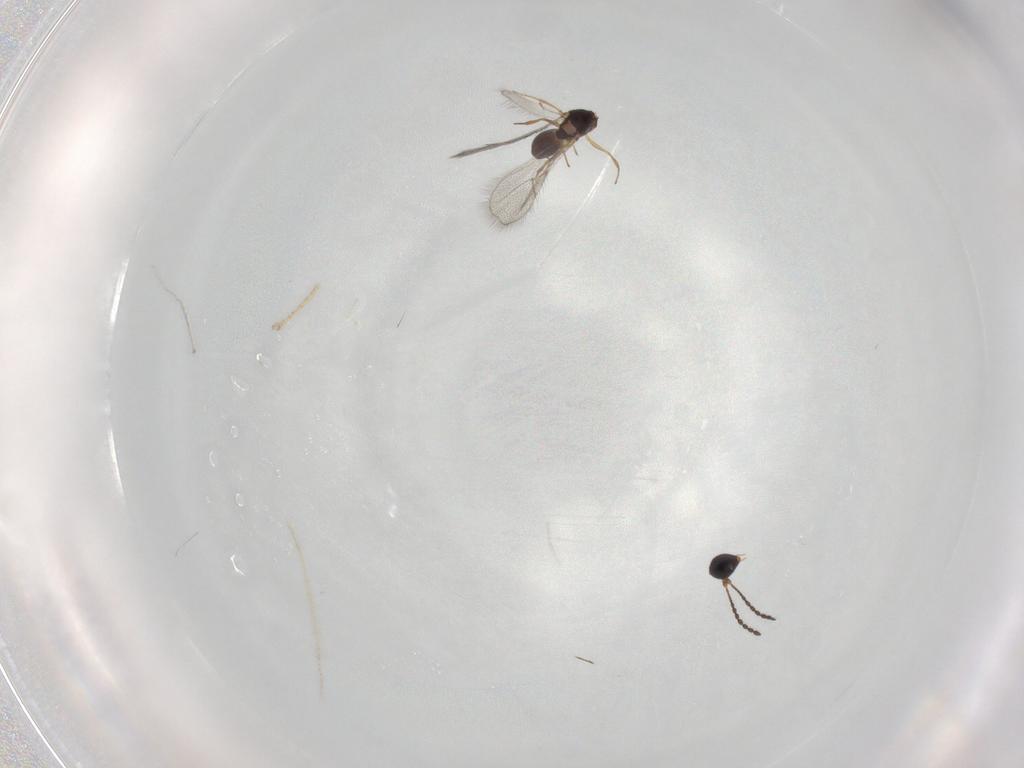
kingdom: Animalia
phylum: Arthropoda
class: Insecta
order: Hymenoptera
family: Figitidae
